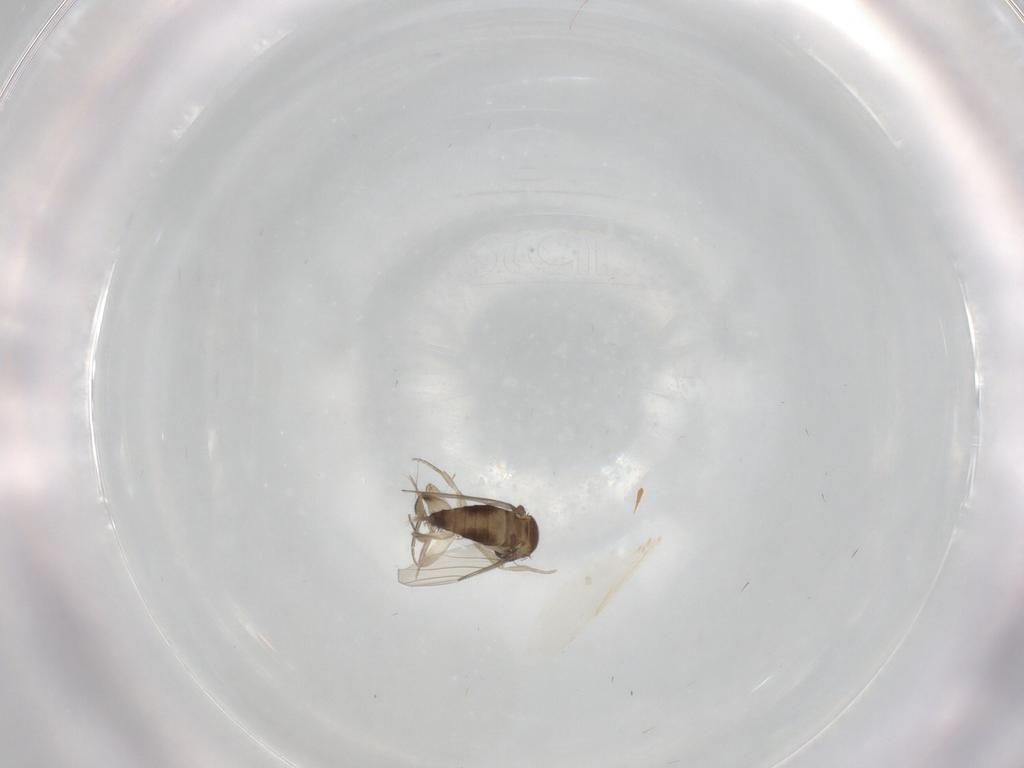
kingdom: Animalia
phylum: Arthropoda
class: Insecta
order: Diptera
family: Phoridae
